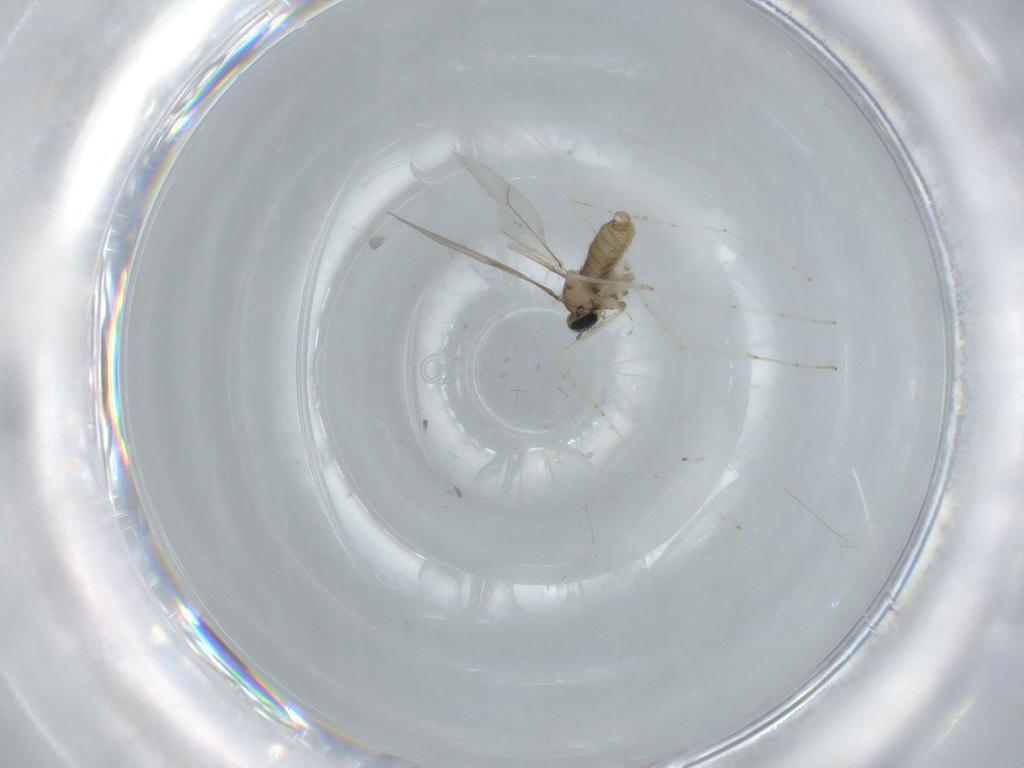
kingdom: Animalia
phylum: Arthropoda
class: Insecta
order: Diptera
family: Cecidomyiidae
